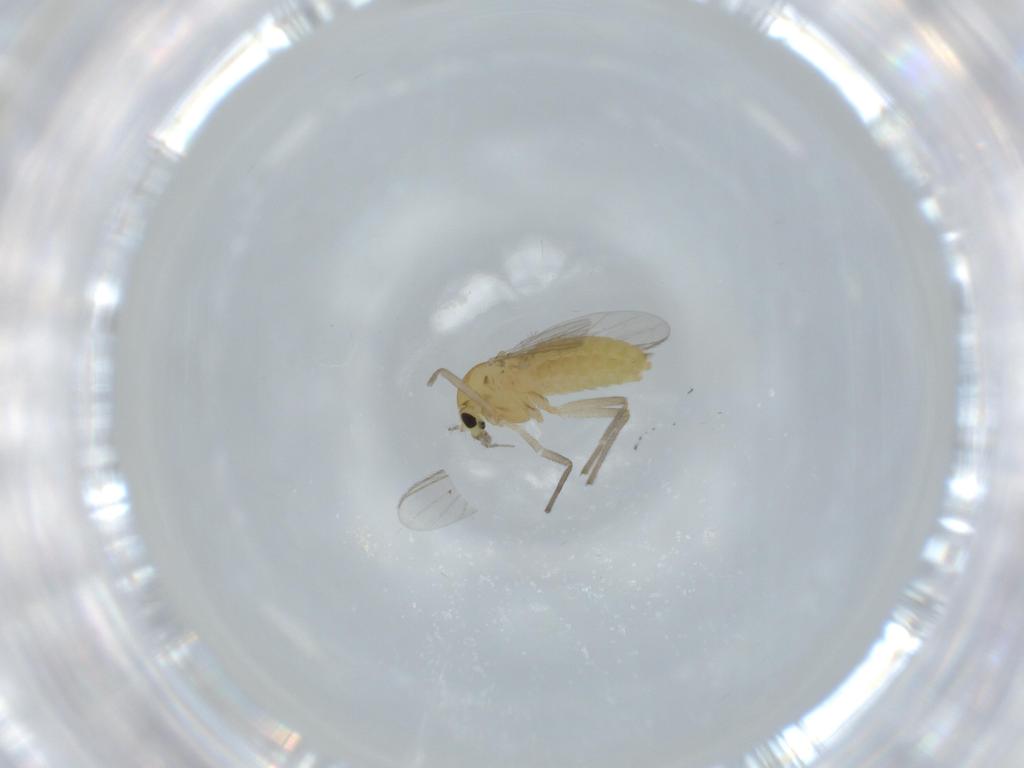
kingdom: Animalia
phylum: Arthropoda
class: Insecta
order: Diptera
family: Chironomidae
